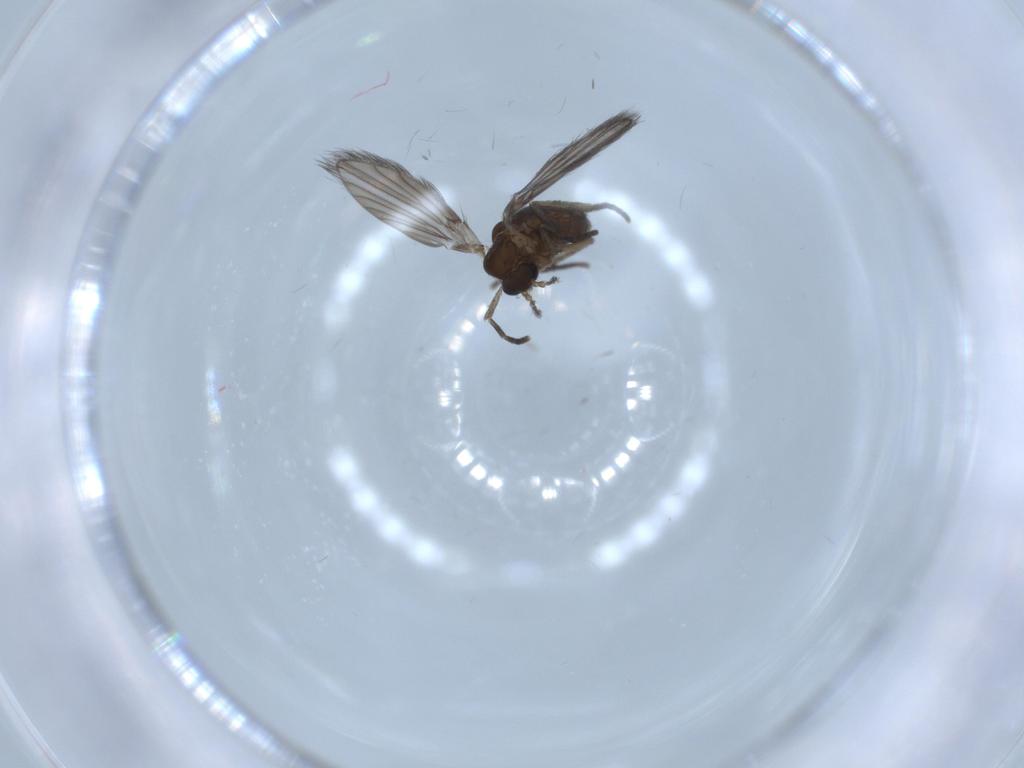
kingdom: Animalia
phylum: Arthropoda
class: Insecta
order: Diptera
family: Psychodidae
